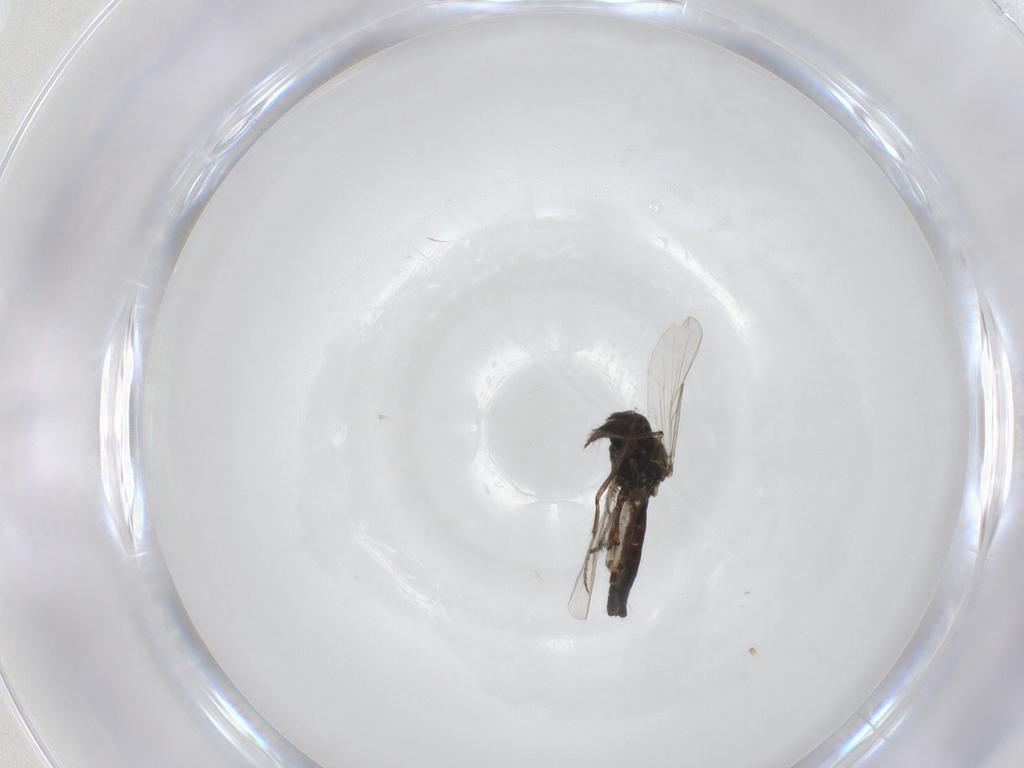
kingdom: Animalia
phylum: Arthropoda
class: Insecta
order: Diptera
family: Ceratopogonidae
